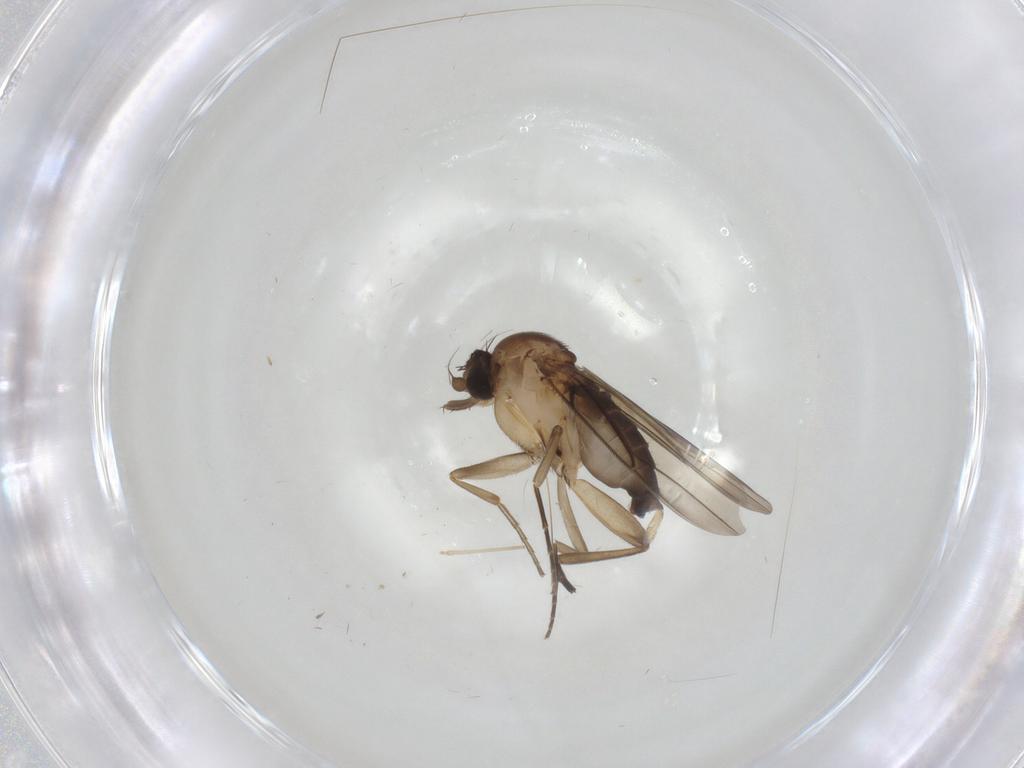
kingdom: Animalia
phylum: Arthropoda
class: Insecta
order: Diptera
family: Phoridae
